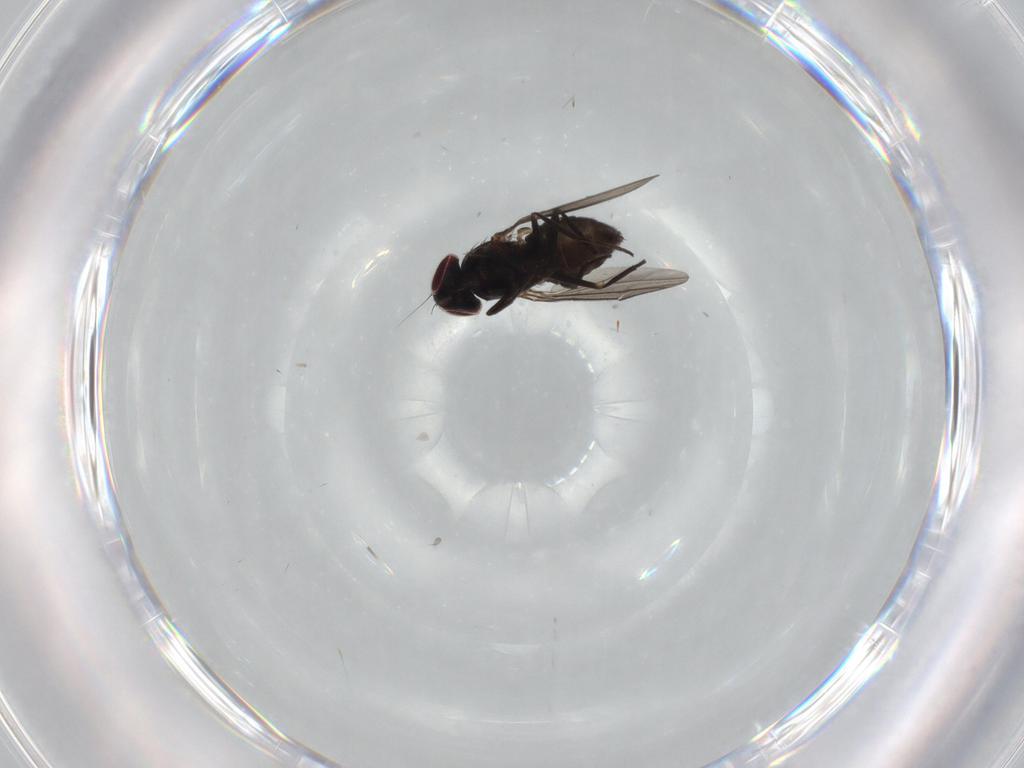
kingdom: Animalia
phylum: Arthropoda
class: Insecta
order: Diptera
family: Dolichopodidae
